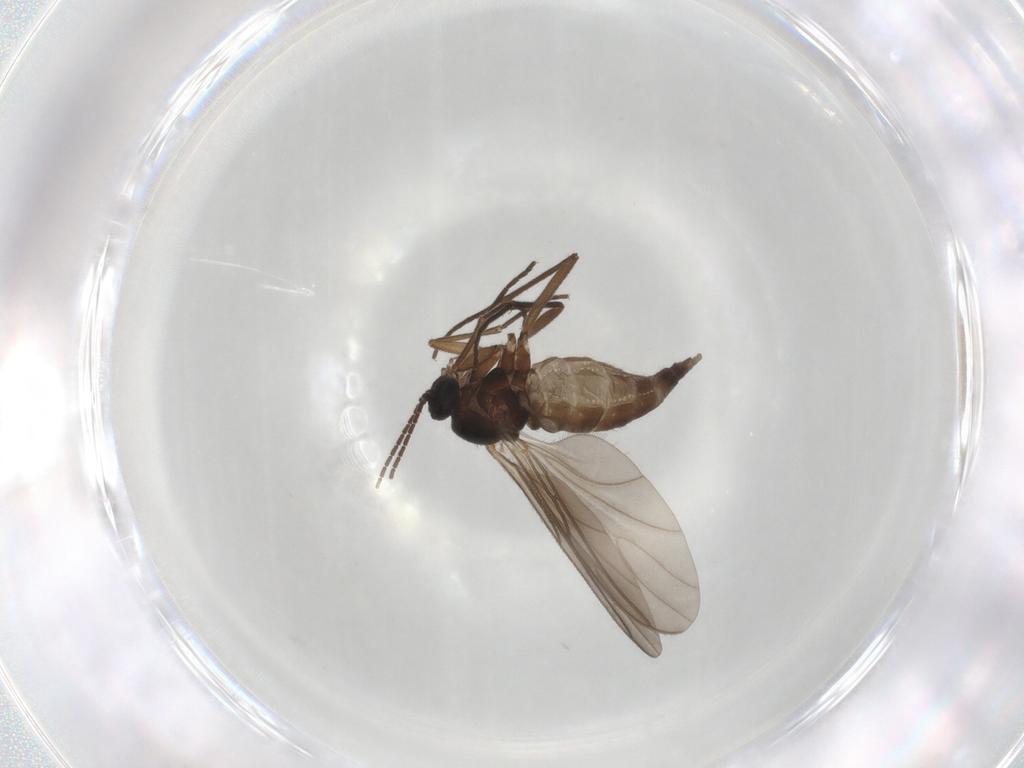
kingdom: Animalia
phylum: Arthropoda
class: Insecta
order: Diptera
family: Sciaridae
